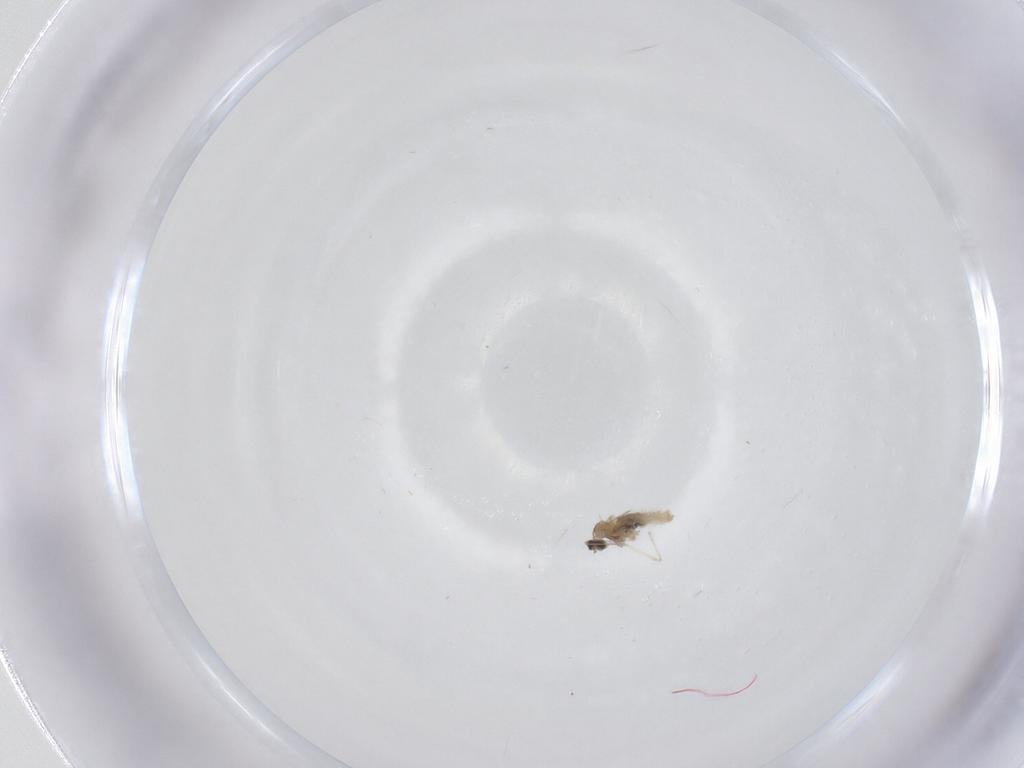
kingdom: Animalia
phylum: Arthropoda
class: Insecta
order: Diptera
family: Cecidomyiidae
